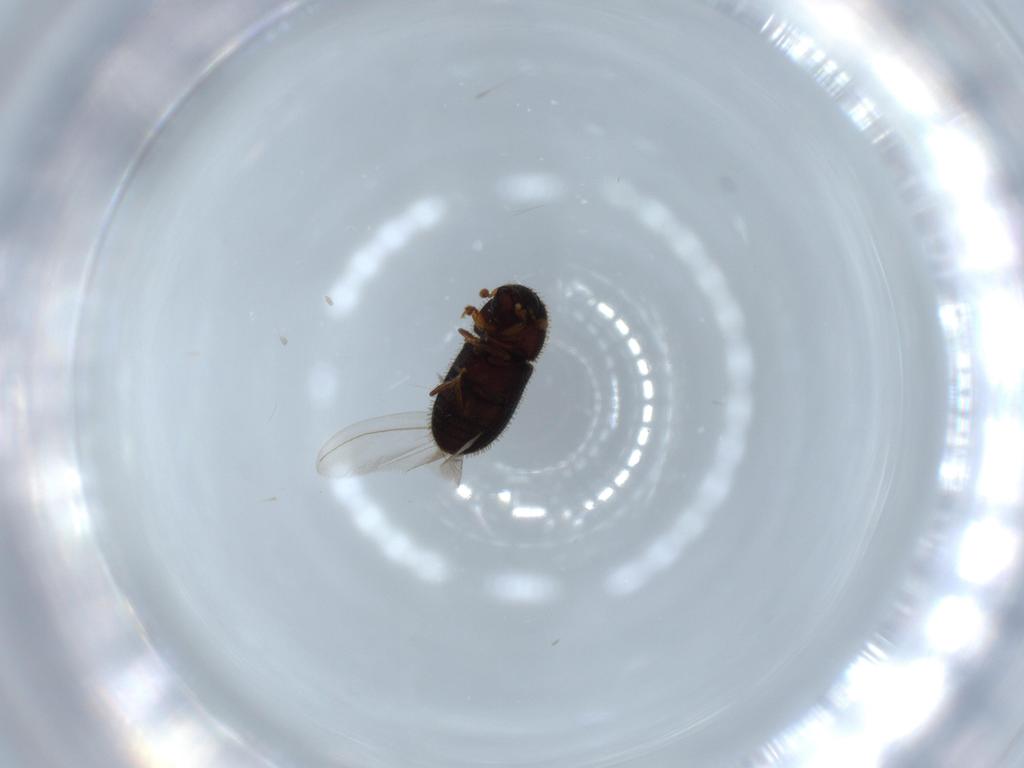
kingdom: Animalia
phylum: Arthropoda
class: Insecta
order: Coleoptera
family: Curculionidae
